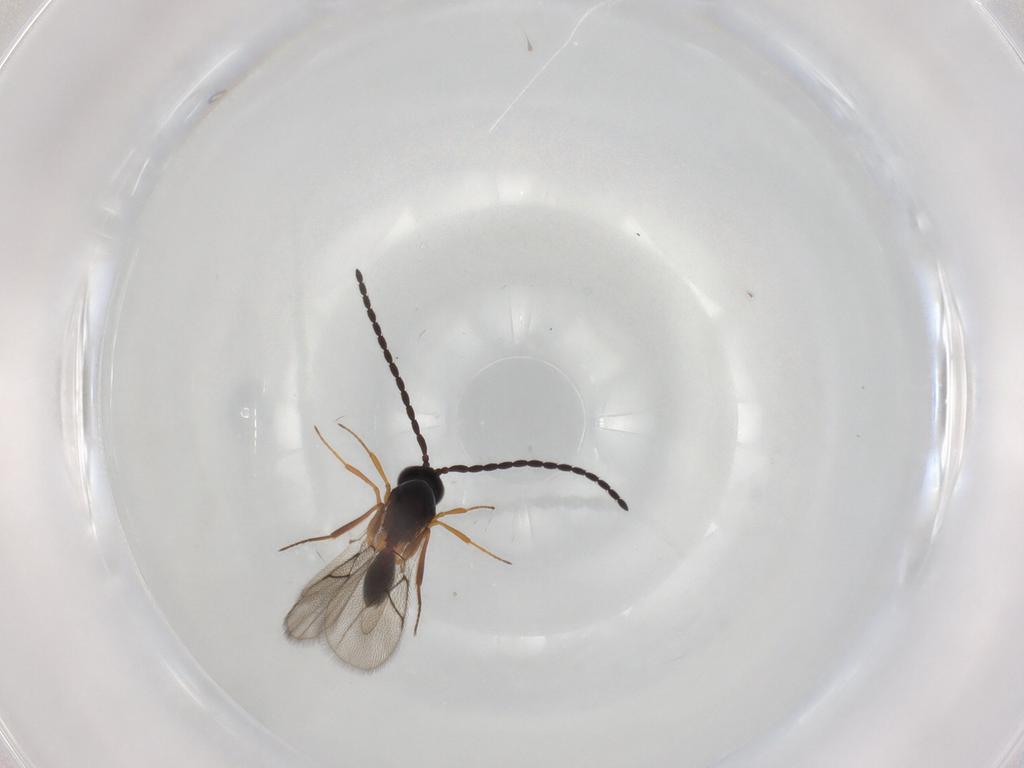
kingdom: Animalia
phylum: Arthropoda
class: Insecta
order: Hymenoptera
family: Figitidae
